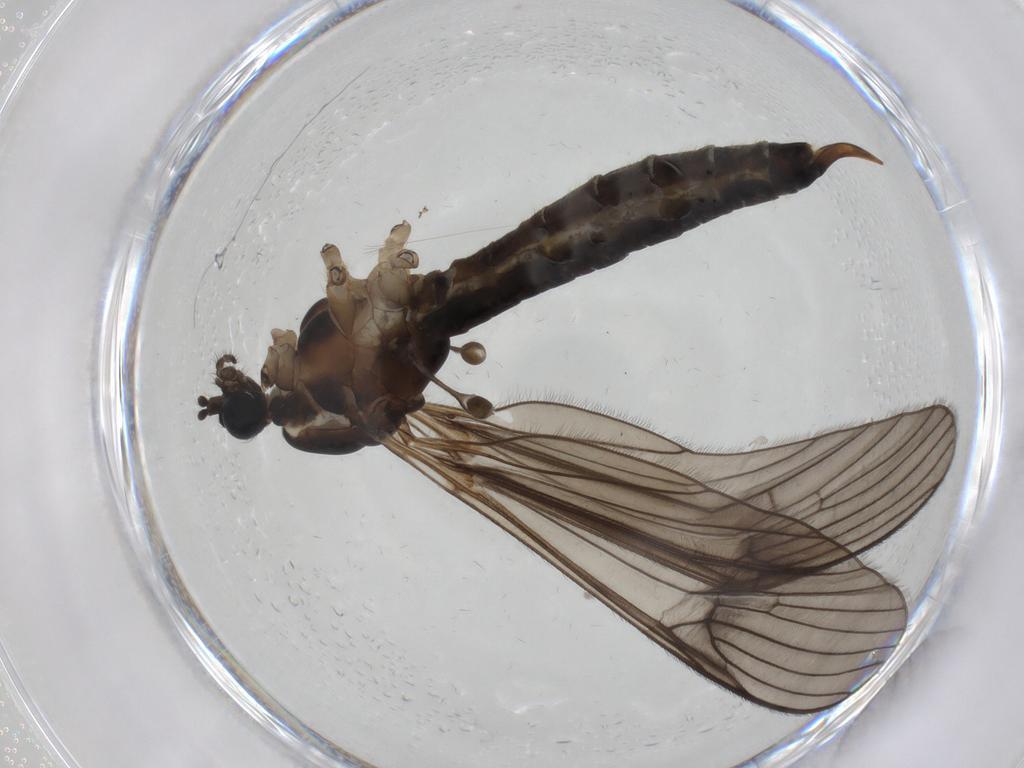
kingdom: Animalia
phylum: Arthropoda
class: Insecta
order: Diptera
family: Limoniidae
